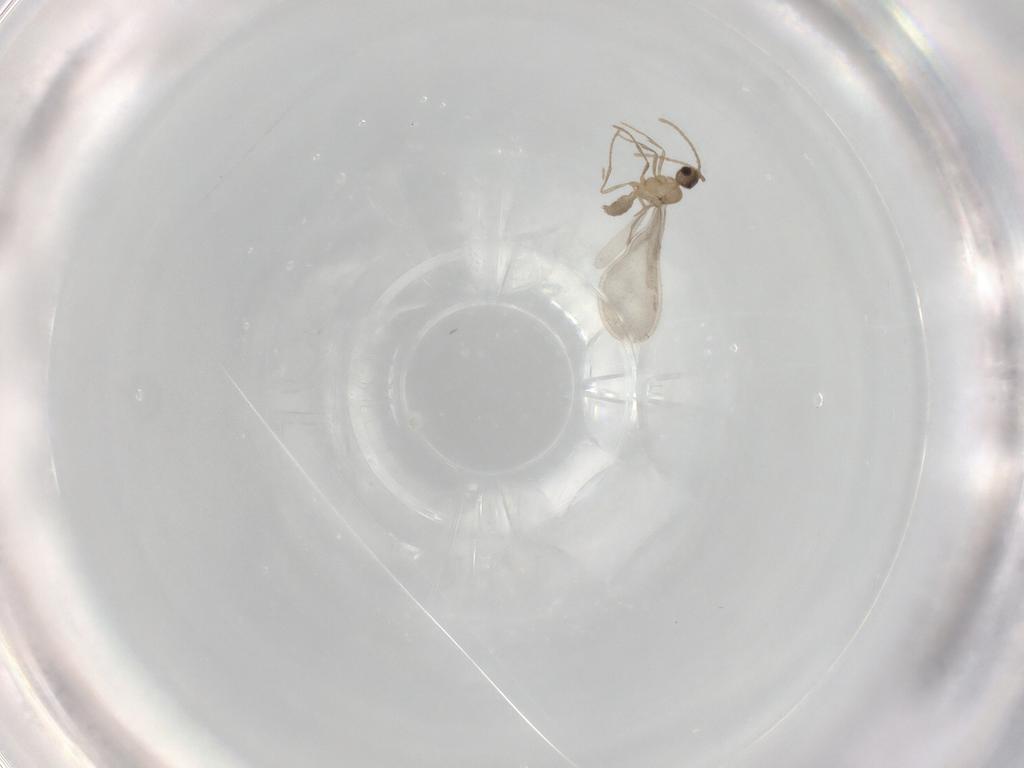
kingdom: Animalia
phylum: Arthropoda
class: Insecta
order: Hymenoptera
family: Formicidae
